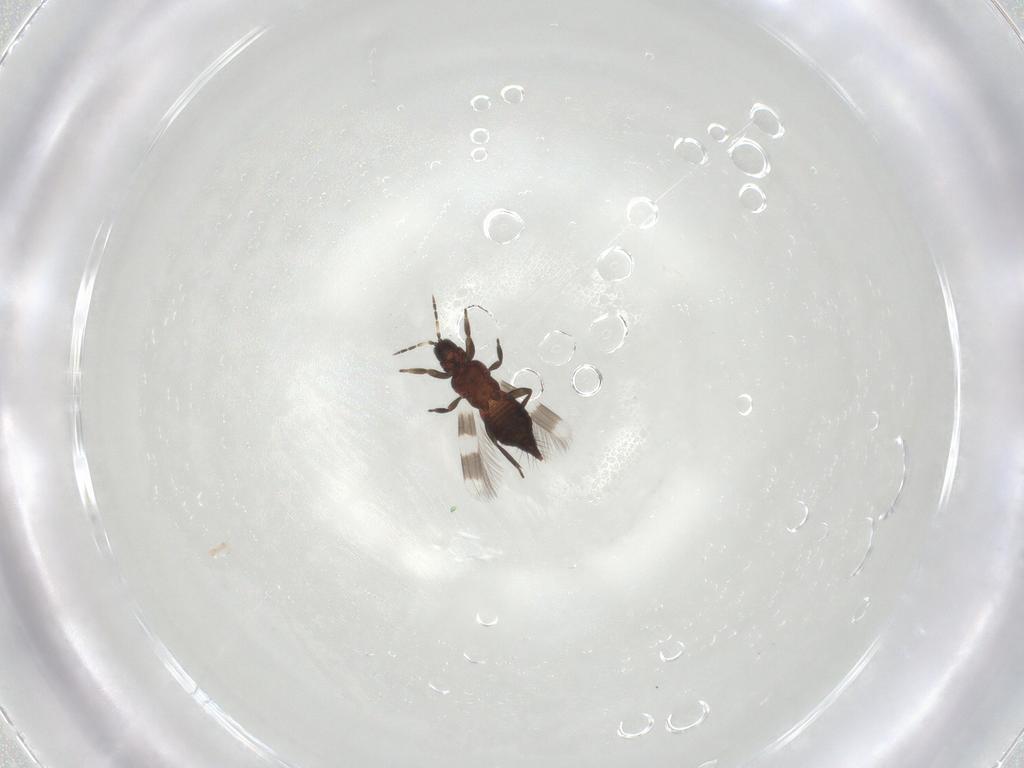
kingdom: Animalia
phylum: Arthropoda
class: Insecta
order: Thysanoptera
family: Aeolothripidae
